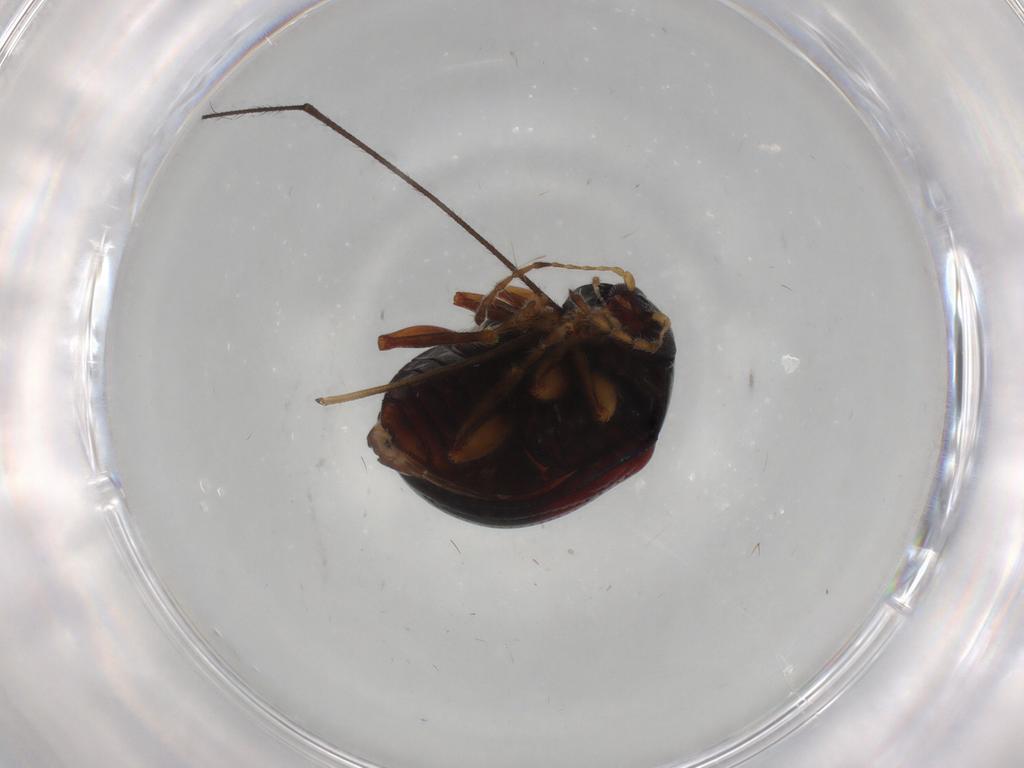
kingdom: Animalia
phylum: Arthropoda
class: Insecta
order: Coleoptera
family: Chrysomelidae
